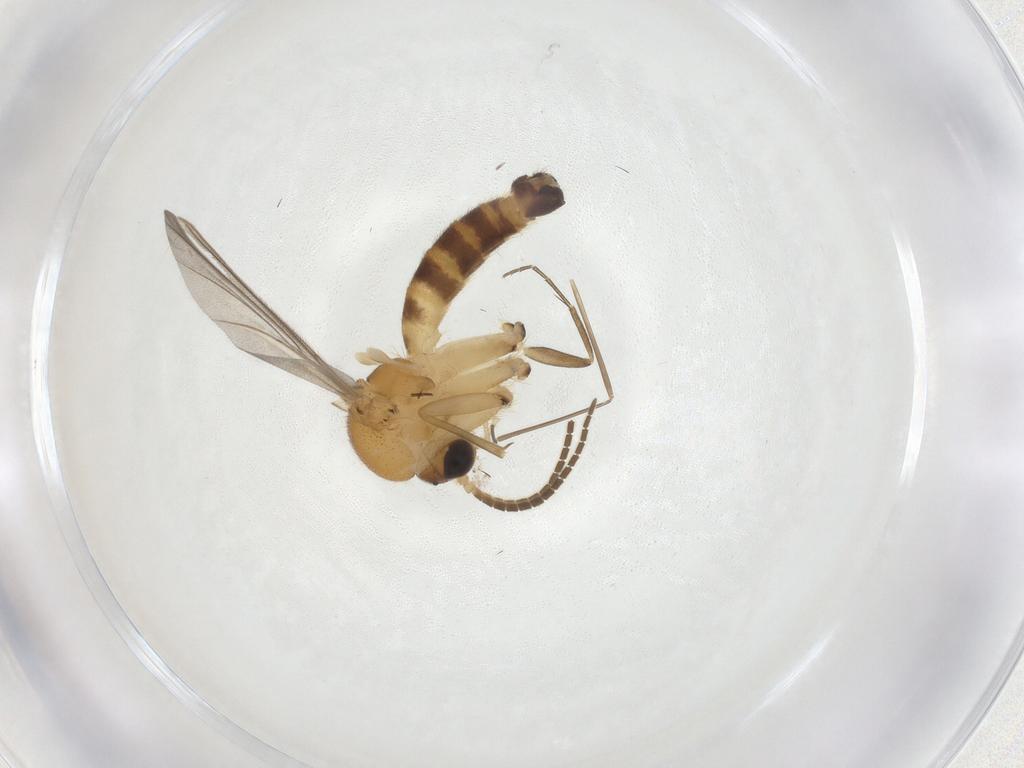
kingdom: Animalia
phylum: Arthropoda
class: Insecta
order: Diptera
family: Mycetophilidae
